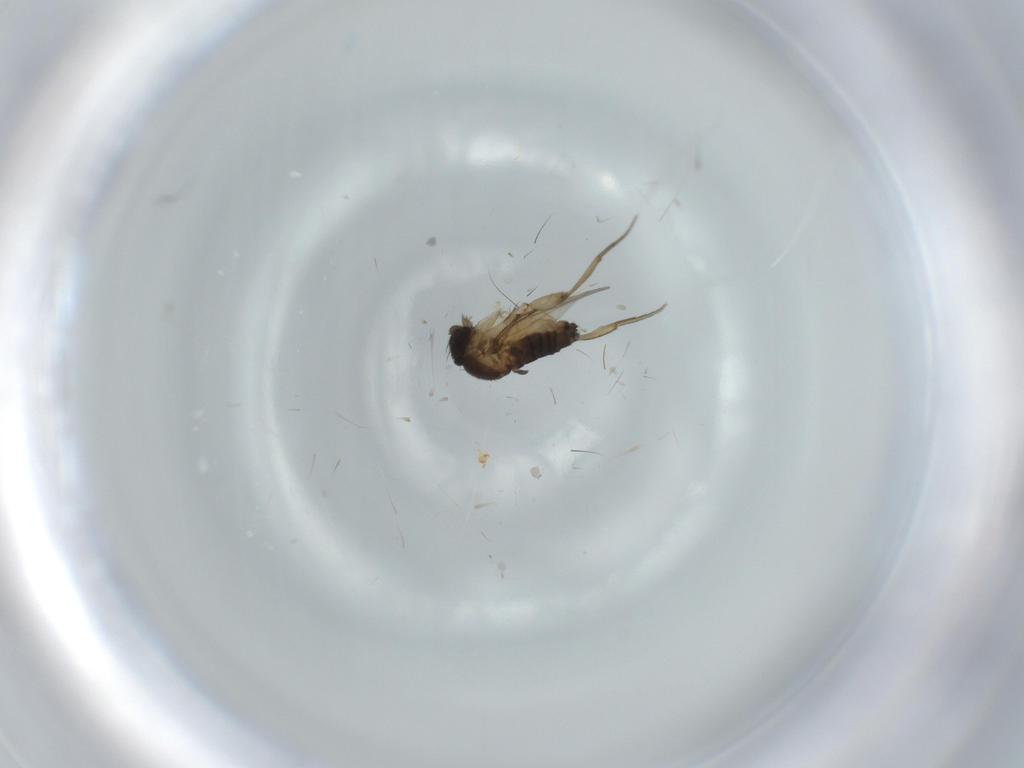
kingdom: Animalia
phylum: Arthropoda
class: Insecta
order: Diptera
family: Phoridae
